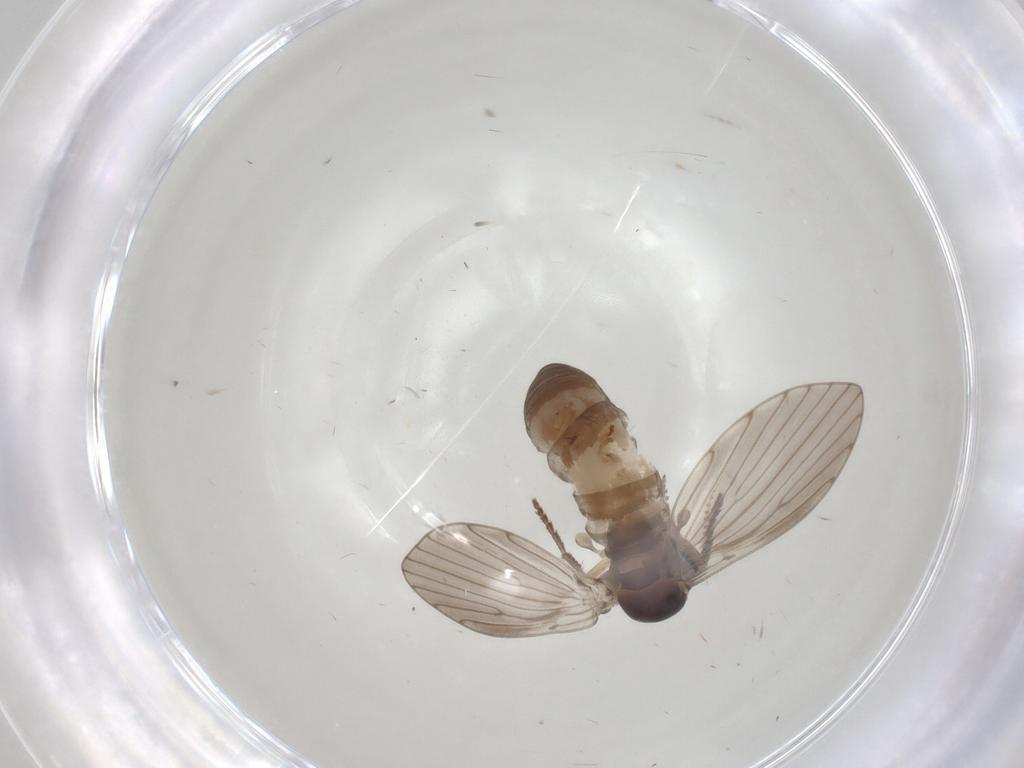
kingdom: Animalia
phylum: Arthropoda
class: Insecta
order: Diptera
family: Psychodidae
